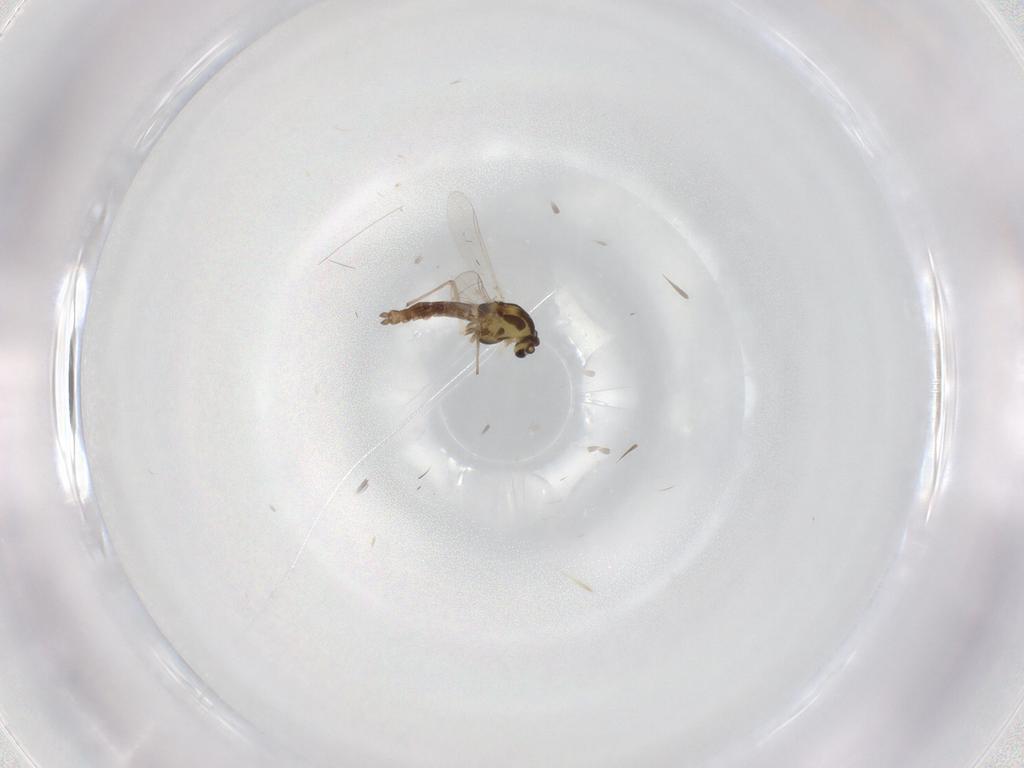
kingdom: Animalia
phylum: Arthropoda
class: Insecta
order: Diptera
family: Chironomidae
